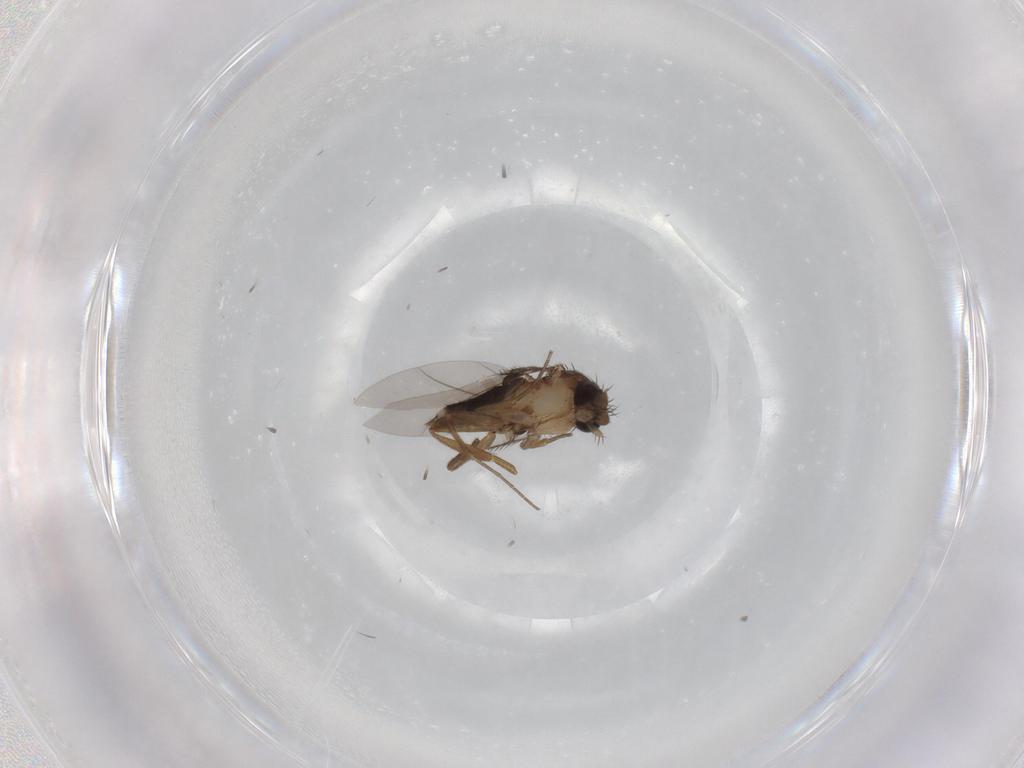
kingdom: Animalia
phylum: Arthropoda
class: Insecta
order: Diptera
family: Phoridae
